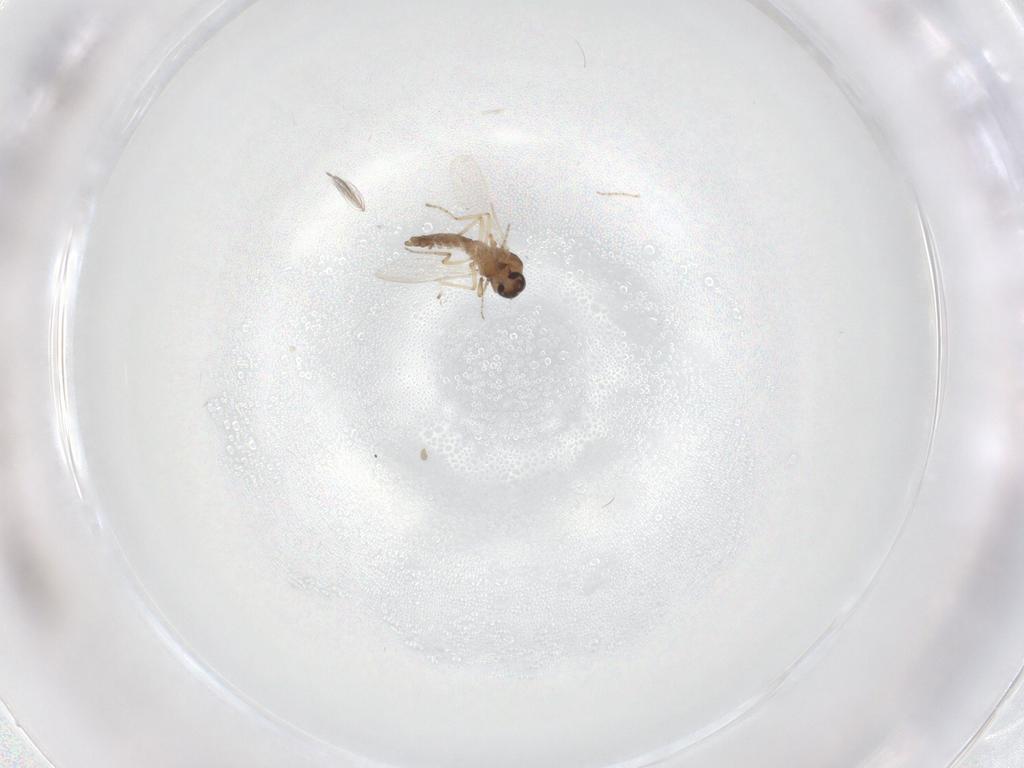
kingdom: Animalia
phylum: Arthropoda
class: Insecta
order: Diptera
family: Ceratopogonidae
